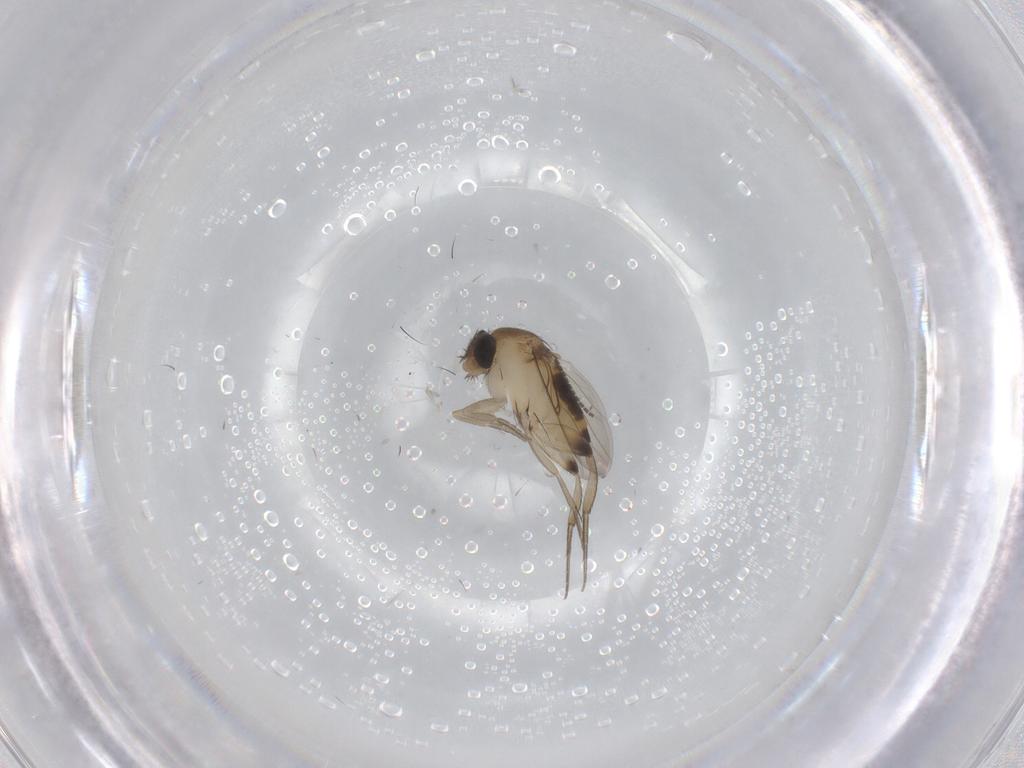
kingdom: Animalia
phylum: Arthropoda
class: Insecta
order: Diptera
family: Phoridae
